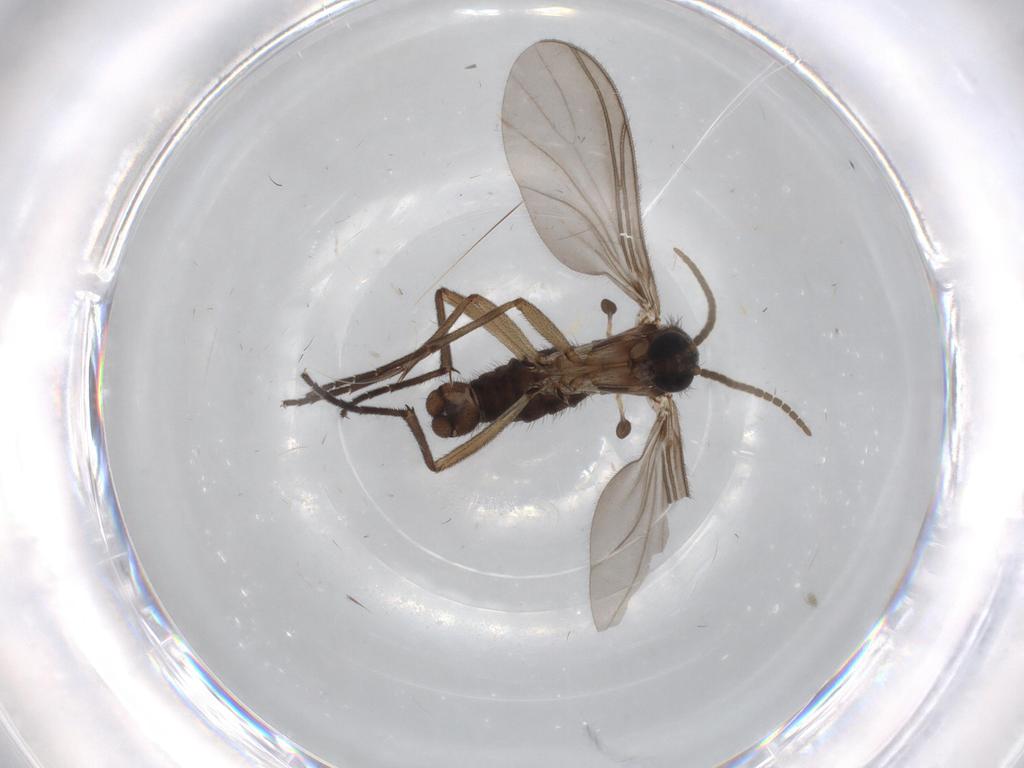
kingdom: Animalia
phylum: Arthropoda
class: Insecta
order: Diptera
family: Sciaridae
